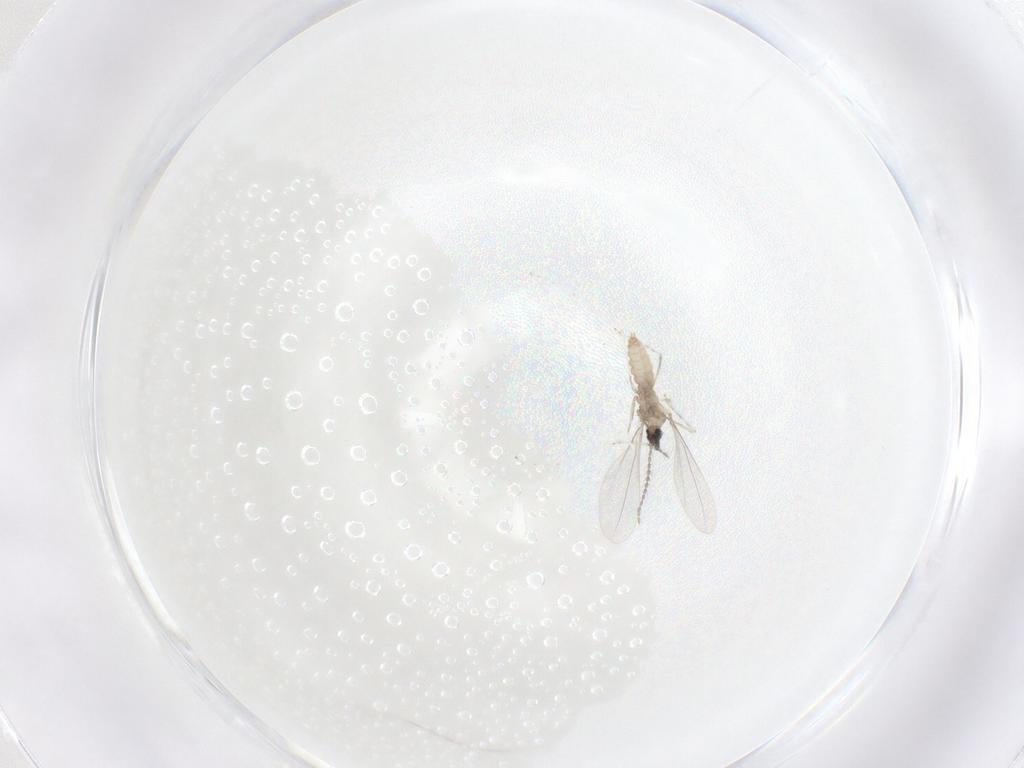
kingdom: Animalia
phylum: Arthropoda
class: Insecta
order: Diptera
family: Cecidomyiidae
